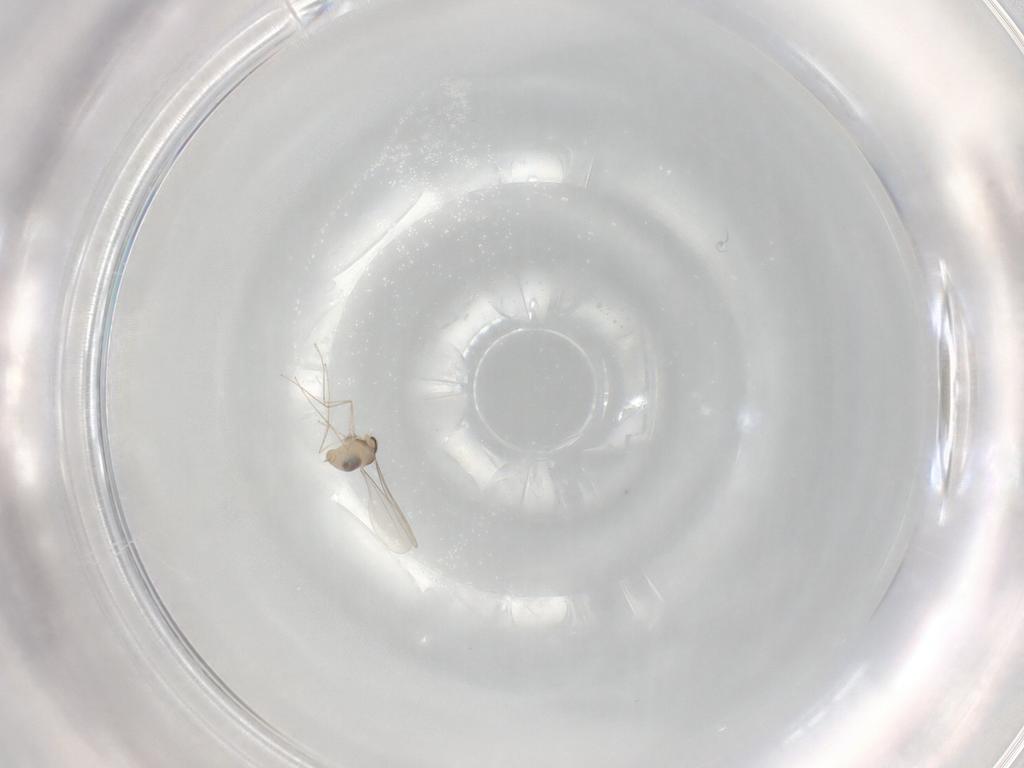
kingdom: Animalia
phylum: Arthropoda
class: Insecta
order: Diptera
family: Cecidomyiidae
